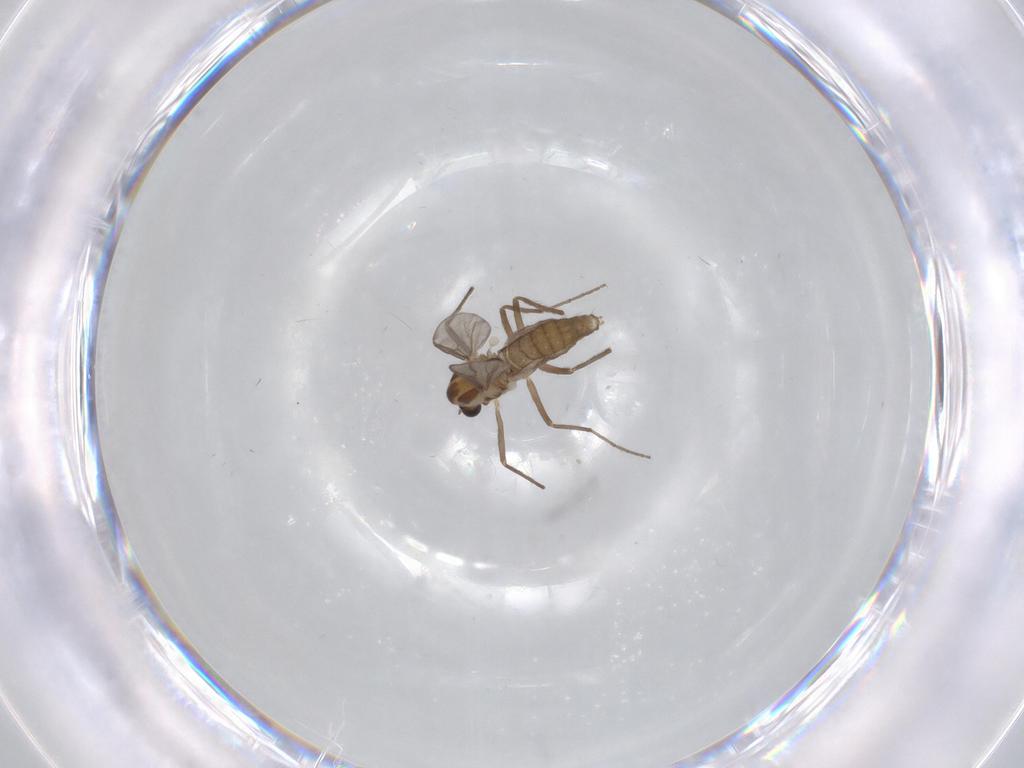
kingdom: Animalia
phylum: Arthropoda
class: Insecta
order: Diptera
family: Chironomidae
